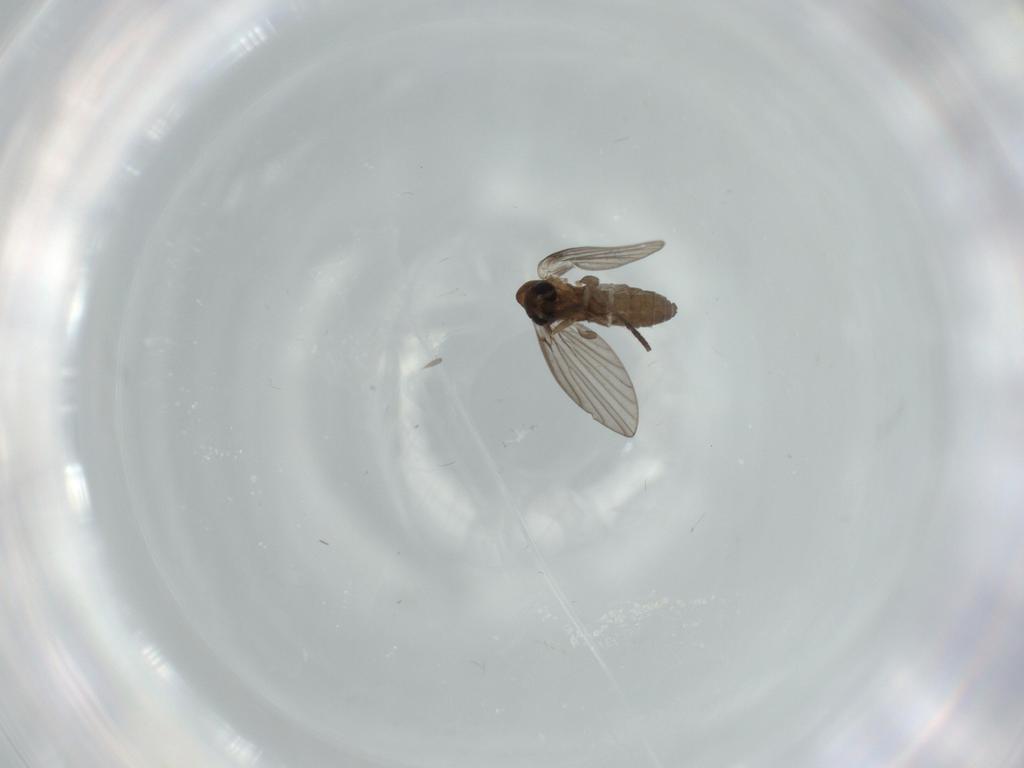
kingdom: Animalia
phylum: Arthropoda
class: Insecta
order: Diptera
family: Psychodidae
